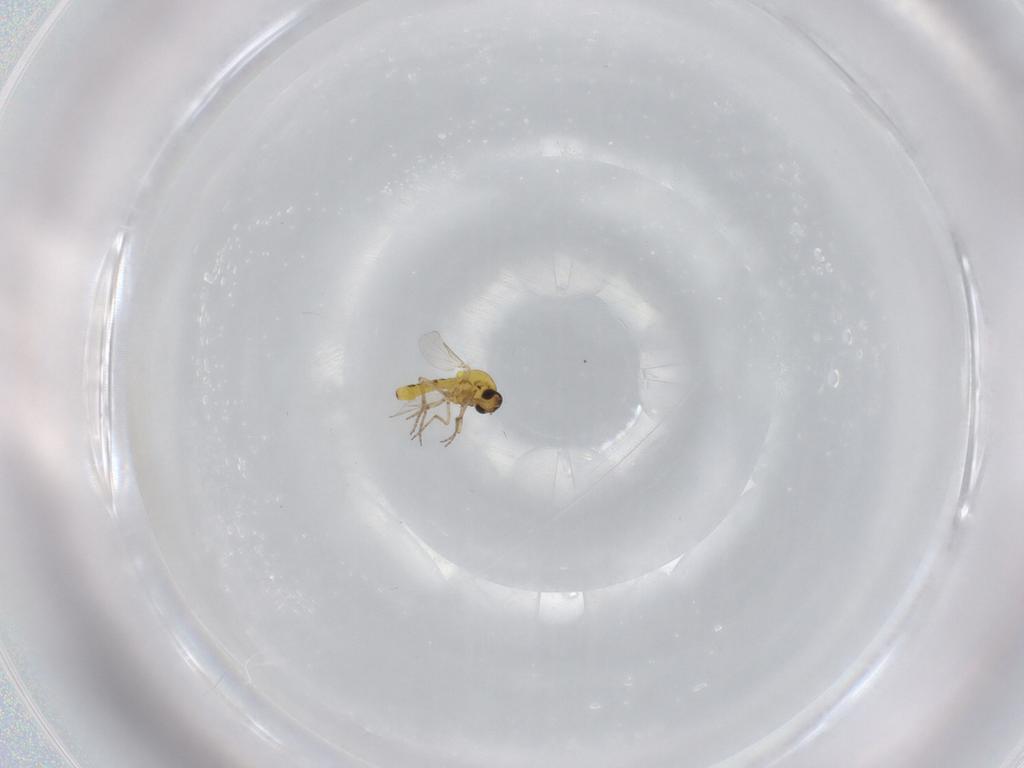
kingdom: Animalia
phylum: Arthropoda
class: Insecta
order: Diptera
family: Ceratopogonidae
